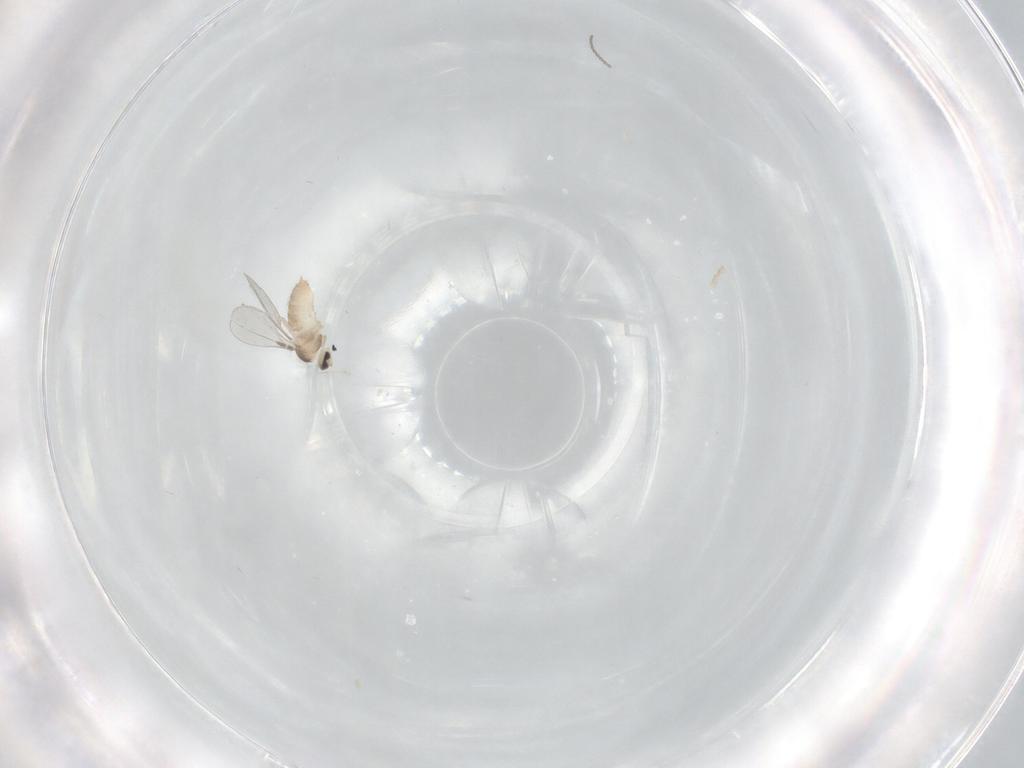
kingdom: Animalia
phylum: Arthropoda
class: Insecta
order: Diptera
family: Cecidomyiidae
